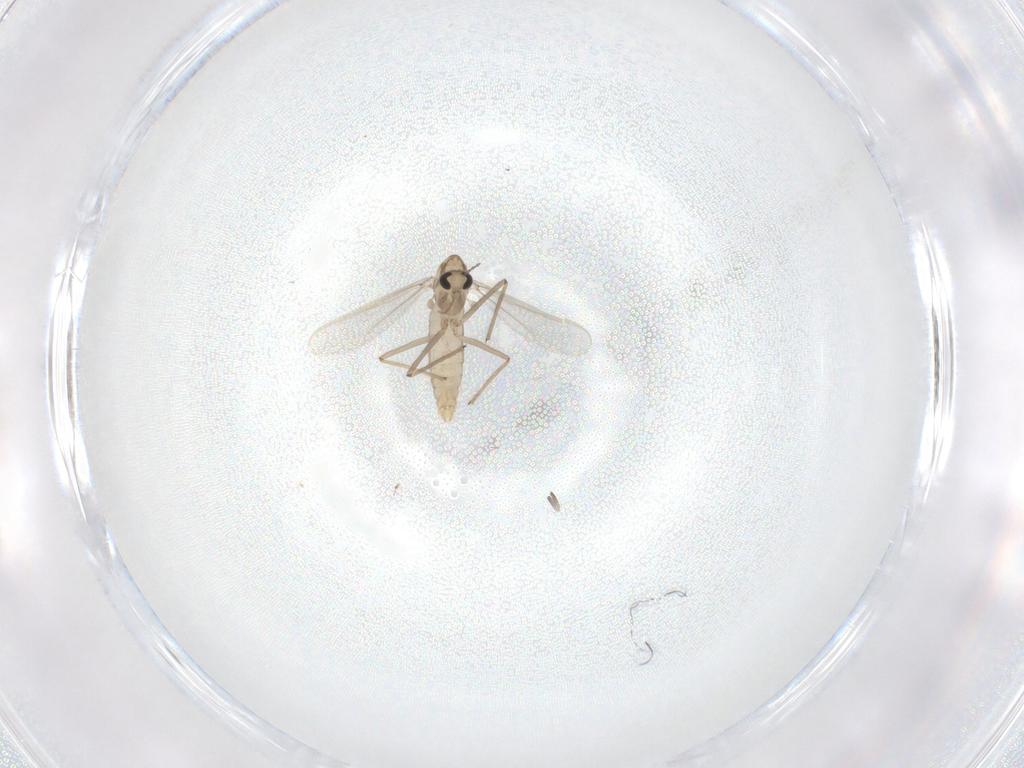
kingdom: Animalia
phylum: Arthropoda
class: Insecta
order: Diptera
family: Chironomidae
